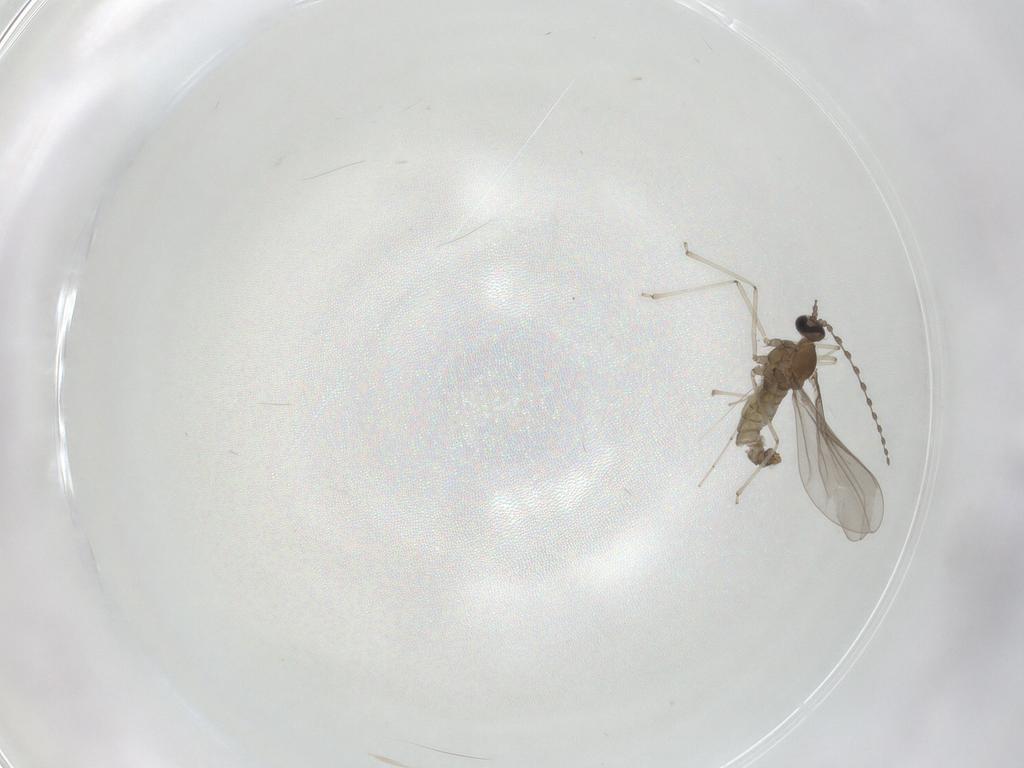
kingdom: Animalia
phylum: Arthropoda
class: Insecta
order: Diptera
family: Cecidomyiidae
